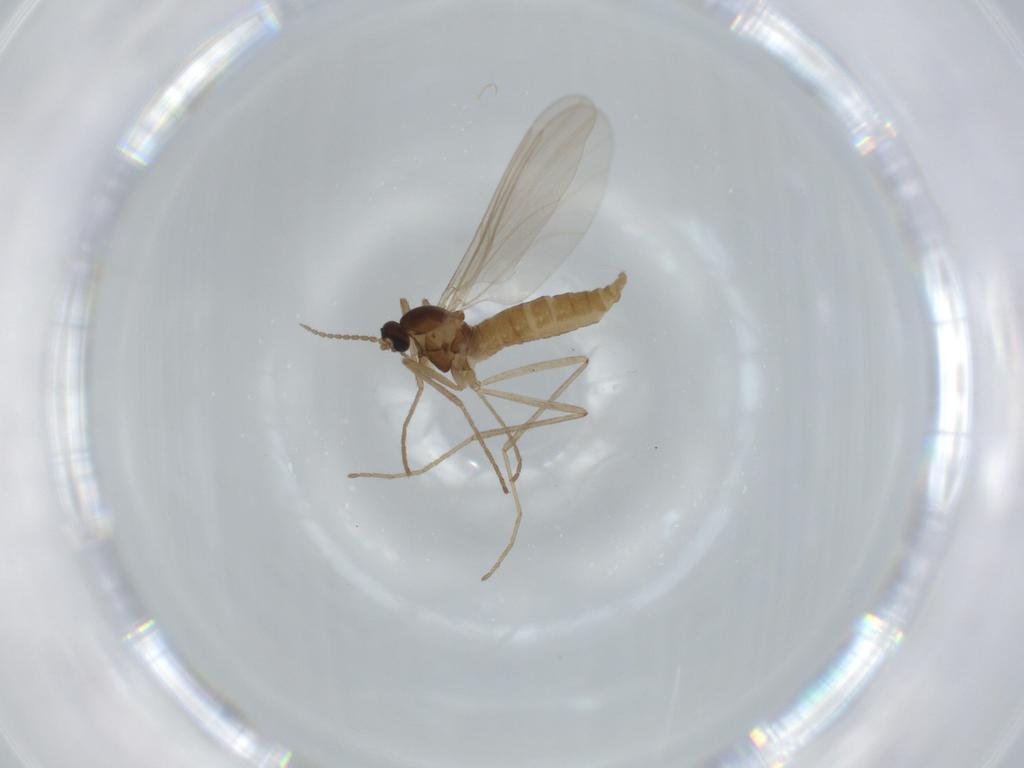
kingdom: Animalia
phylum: Arthropoda
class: Insecta
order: Diptera
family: Cecidomyiidae
